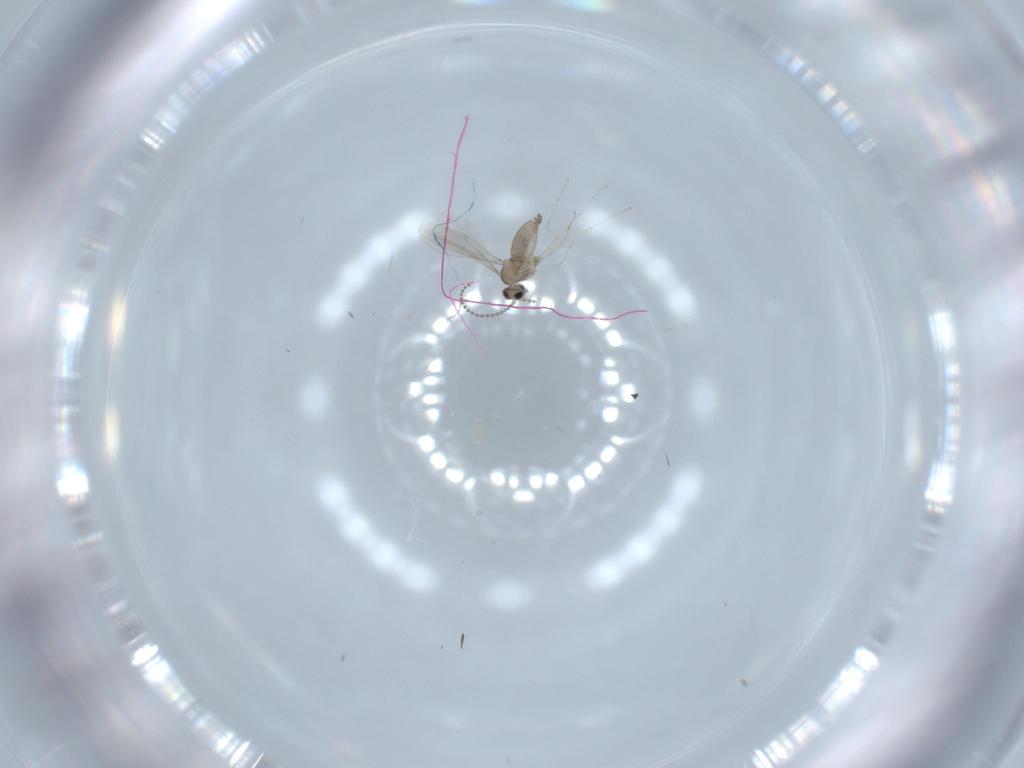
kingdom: Animalia
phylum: Arthropoda
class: Insecta
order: Diptera
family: Cecidomyiidae
